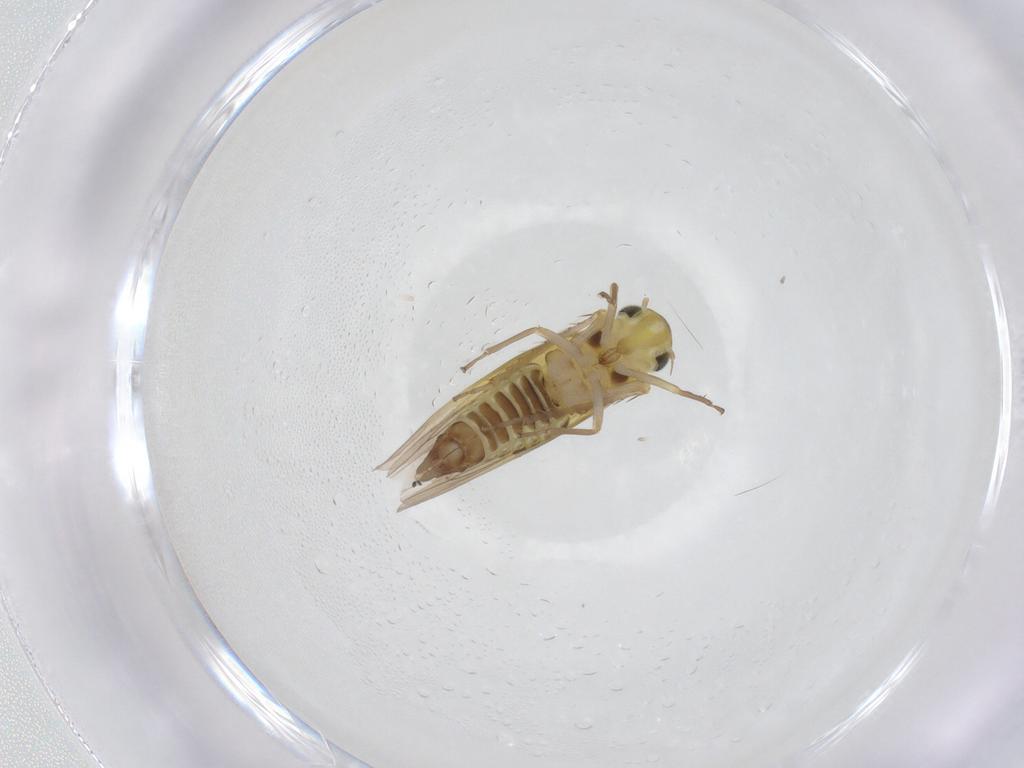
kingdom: Animalia
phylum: Arthropoda
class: Insecta
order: Hemiptera
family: Cicadellidae
